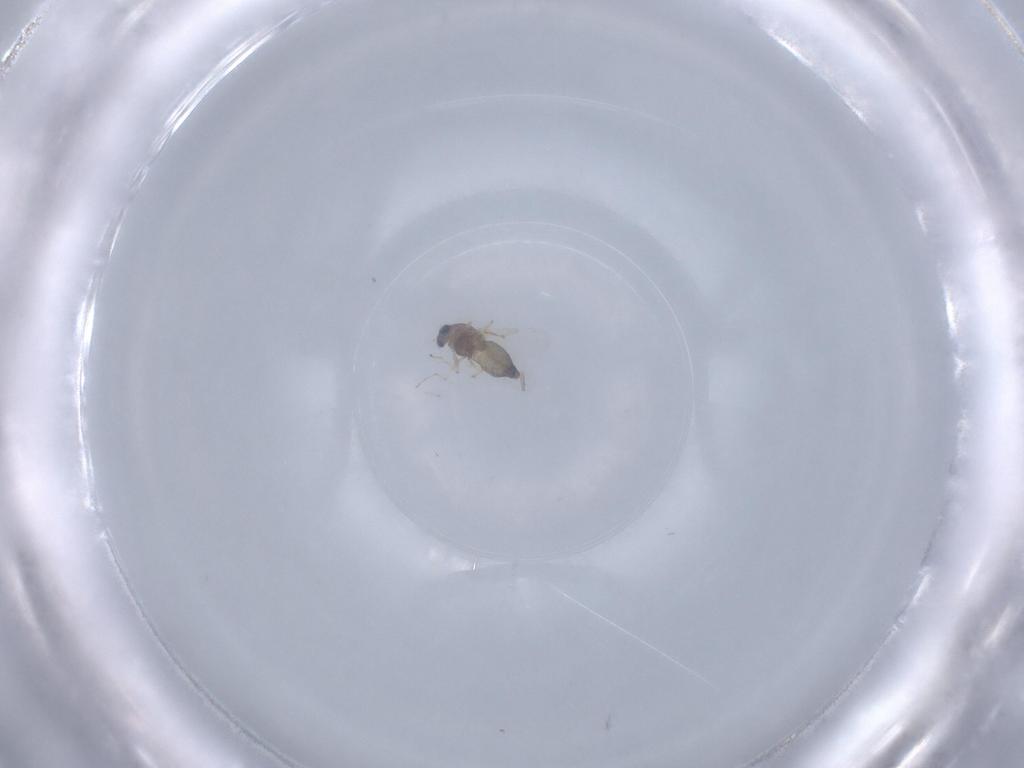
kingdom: Animalia
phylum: Arthropoda
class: Insecta
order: Diptera
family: Chironomidae
